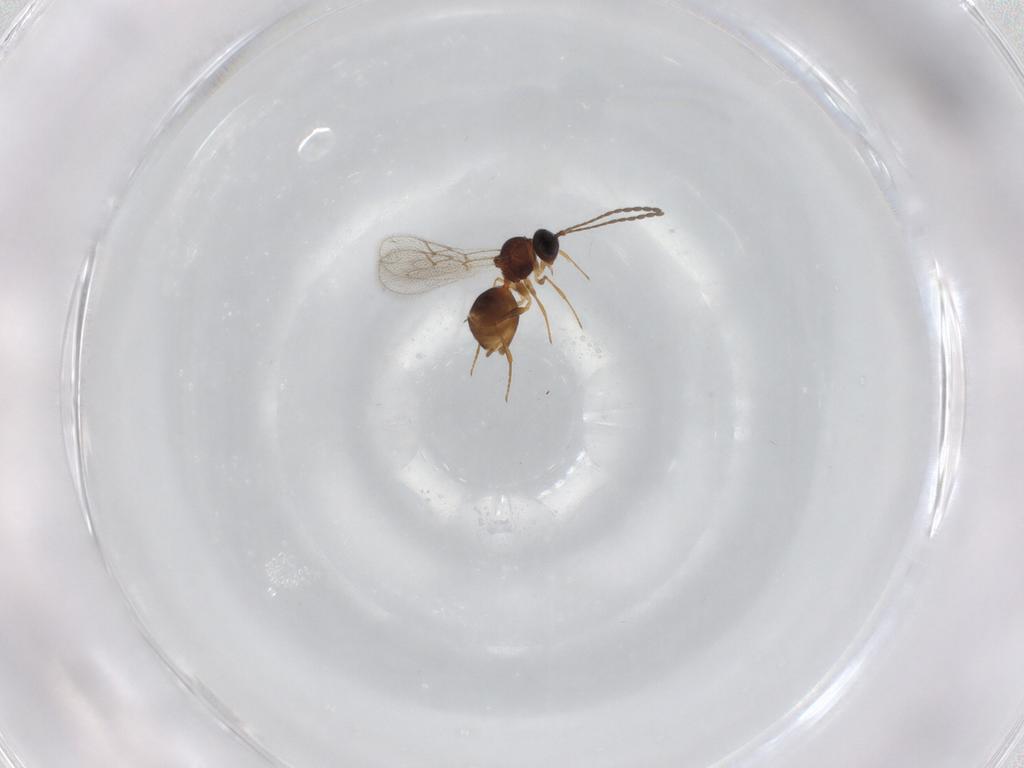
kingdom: Animalia
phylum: Arthropoda
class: Insecta
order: Hymenoptera
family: Figitidae
